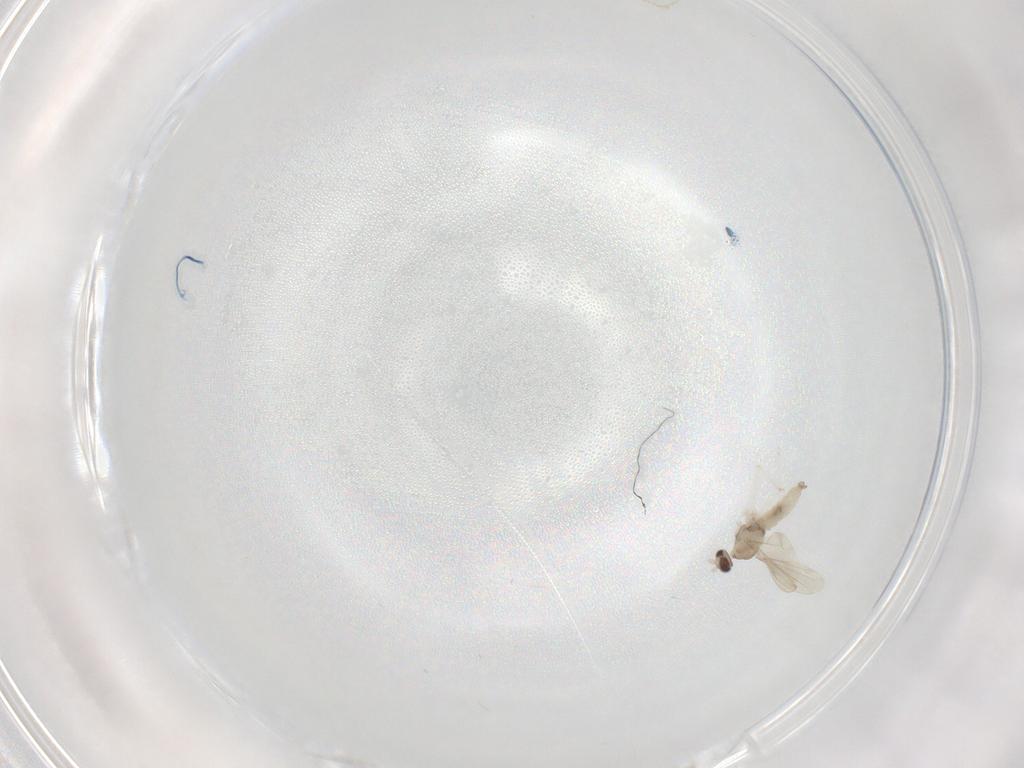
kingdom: Animalia
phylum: Arthropoda
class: Insecta
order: Diptera
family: Cecidomyiidae
